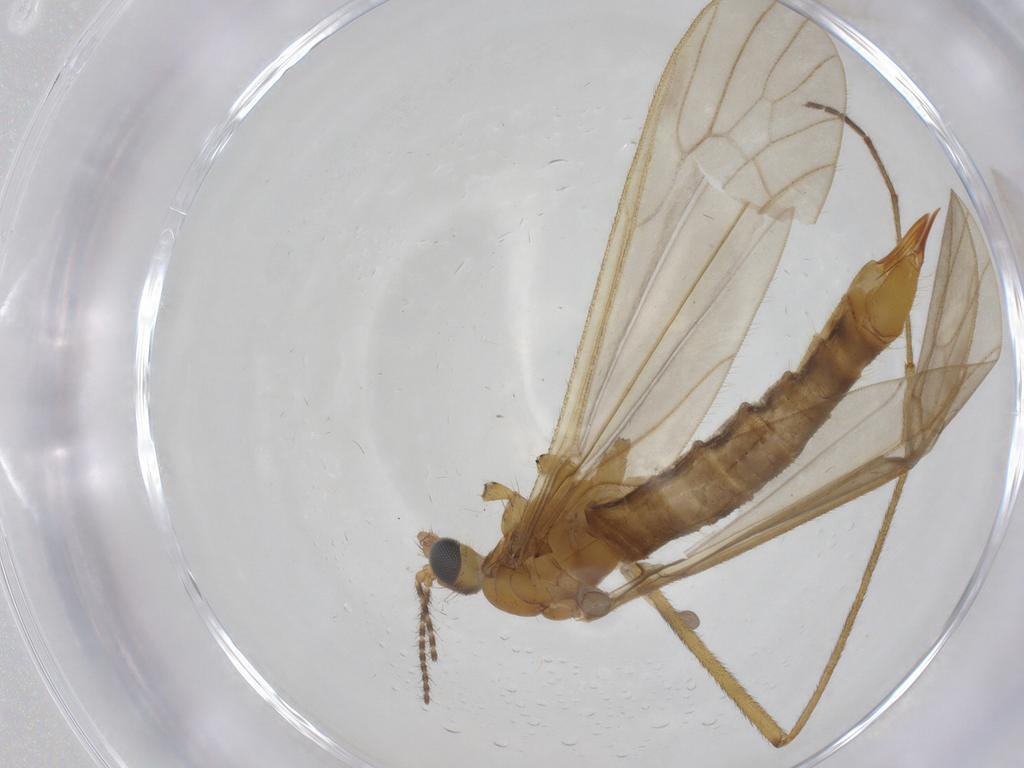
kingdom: Animalia
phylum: Arthropoda
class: Insecta
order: Diptera
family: Limoniidae
